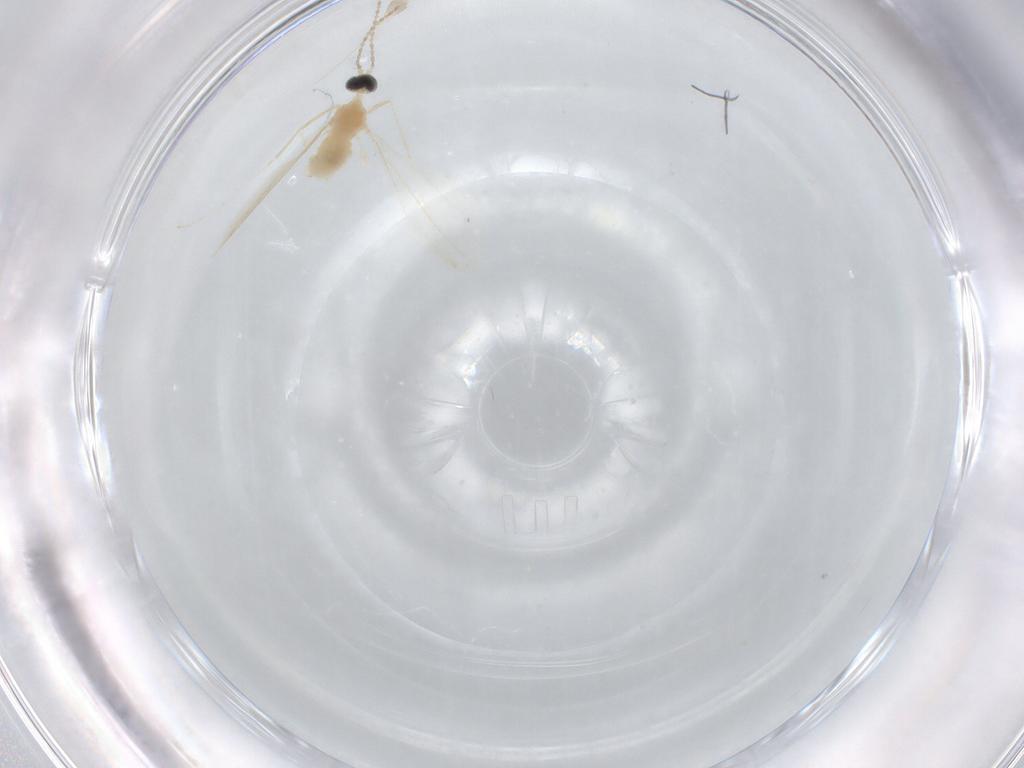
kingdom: Animalia
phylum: Arthropoda
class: Insecta
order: Diptera
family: Cecidomyiidae
